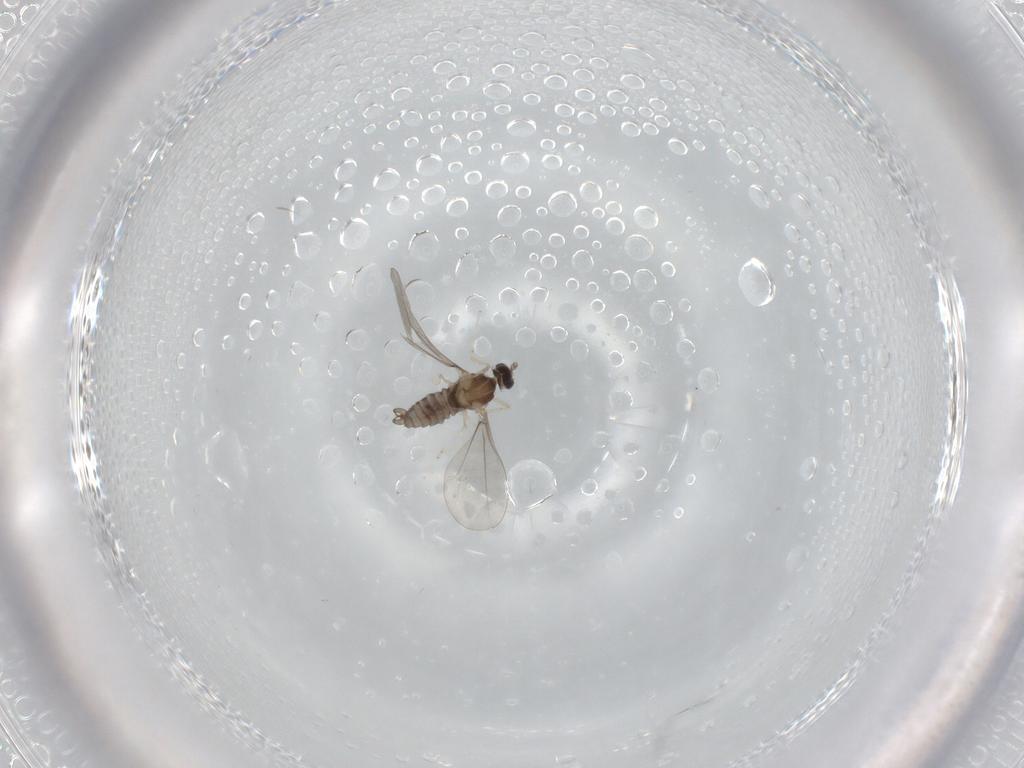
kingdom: Animalia
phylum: Arthropoda
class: Insecta
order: Diptera
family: Cecidomyiidae
